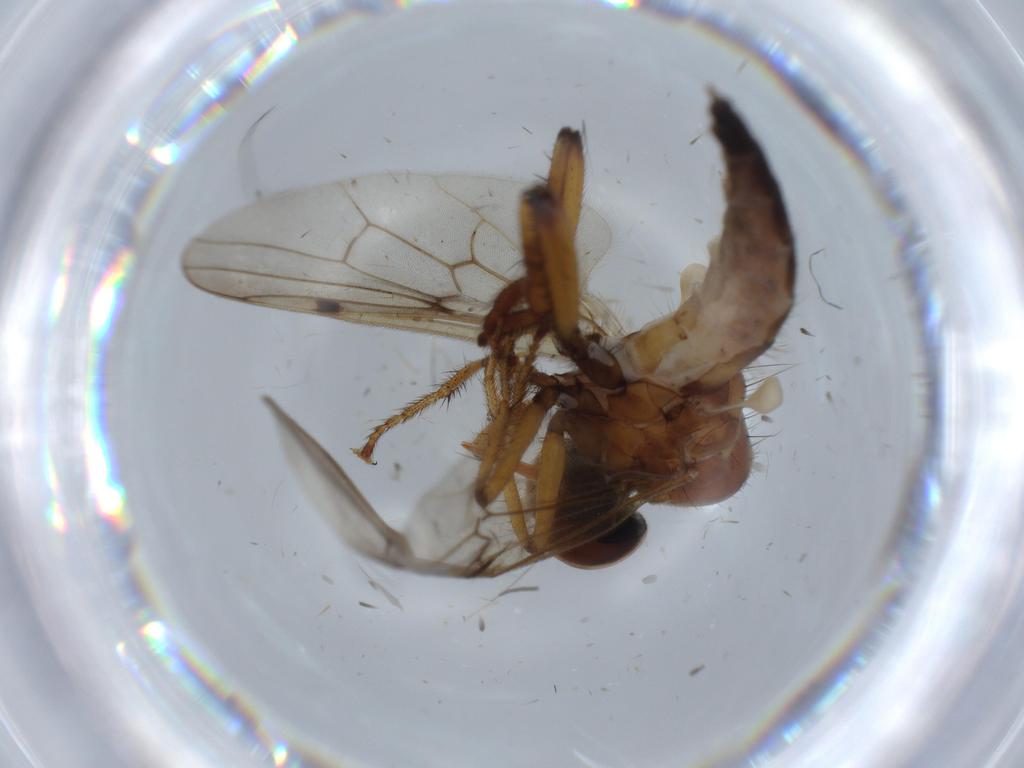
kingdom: Animalia
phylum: Arthropoda
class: Insecta
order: Diptera
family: Hybotidae
